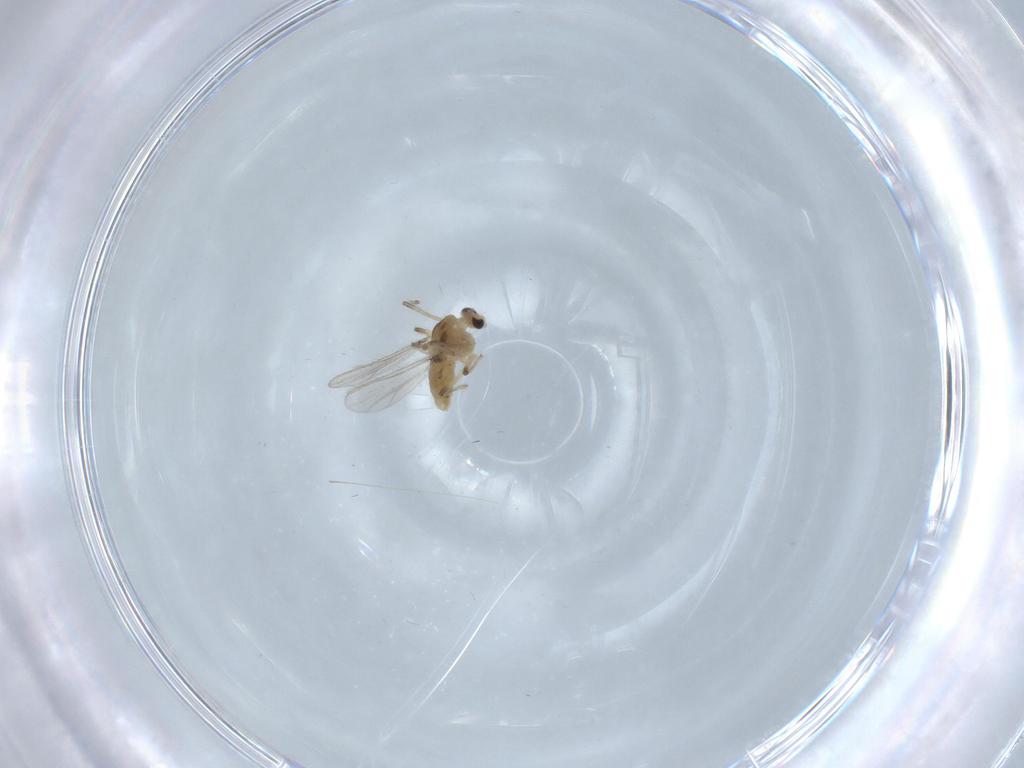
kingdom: Animalia
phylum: Arthropoda
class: Insecta
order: Diptera
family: Chironomidae
